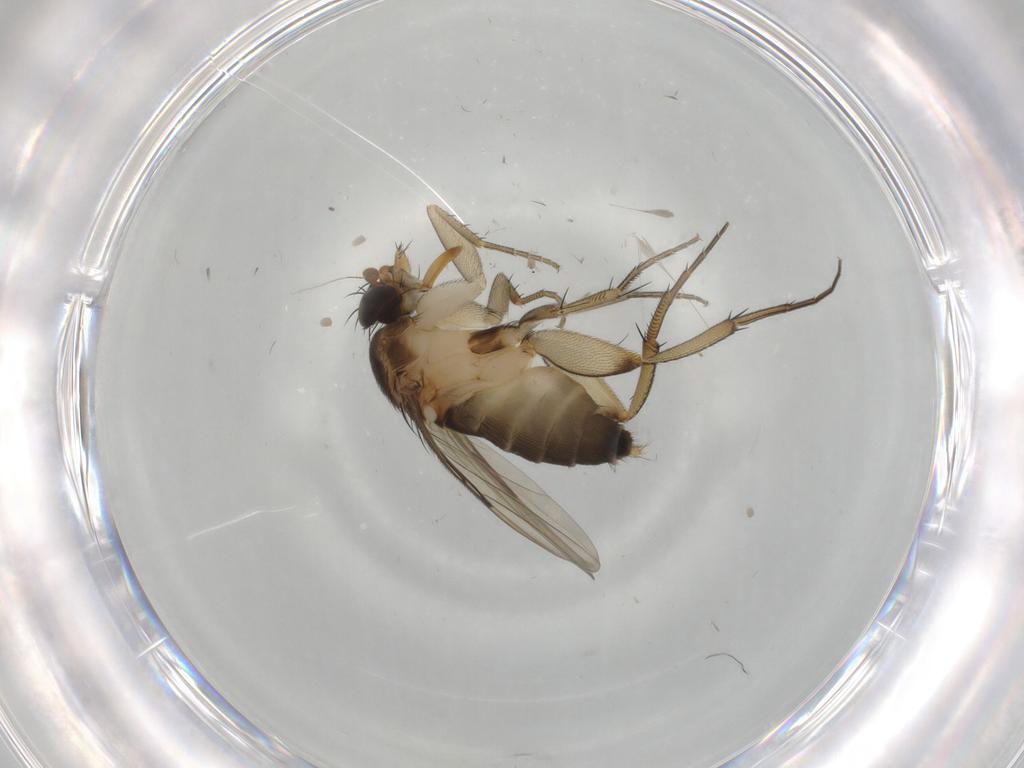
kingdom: Animalia
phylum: Arthropoda
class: Insecta
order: Diptera
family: Phoridae
